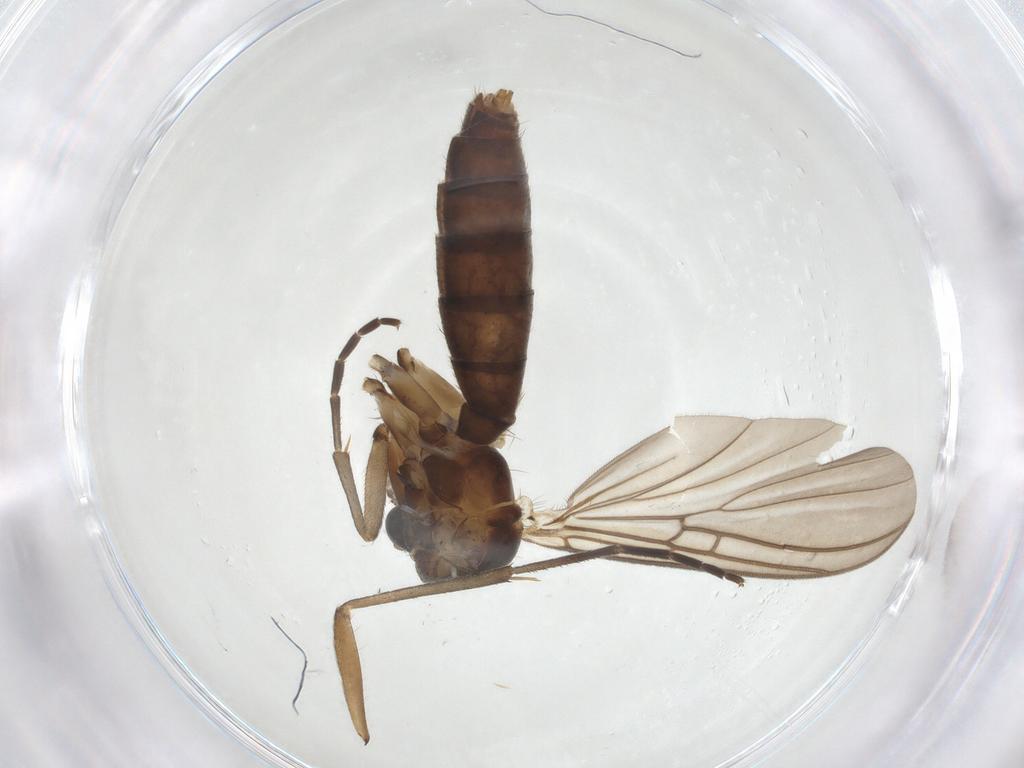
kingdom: Animalia
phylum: Arthropoda
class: Insecta
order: Diptera
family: Mycetophilidae
